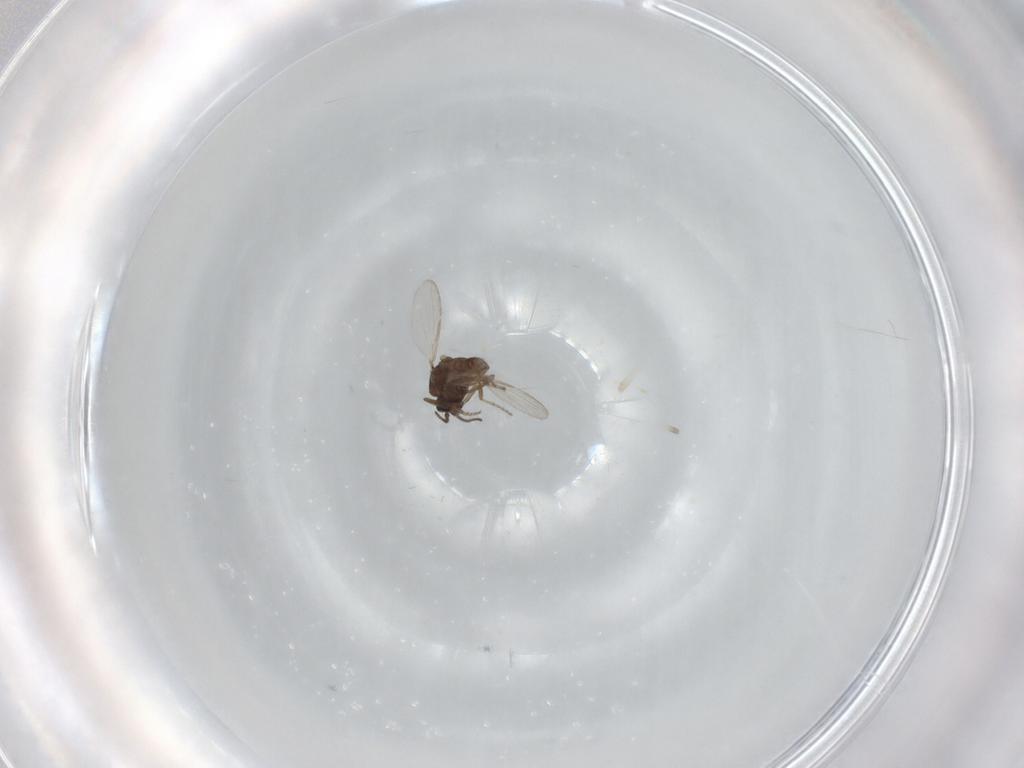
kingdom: Animalia
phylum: Arthropoda
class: Insecta
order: Diptera
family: Ceratopogonidae
